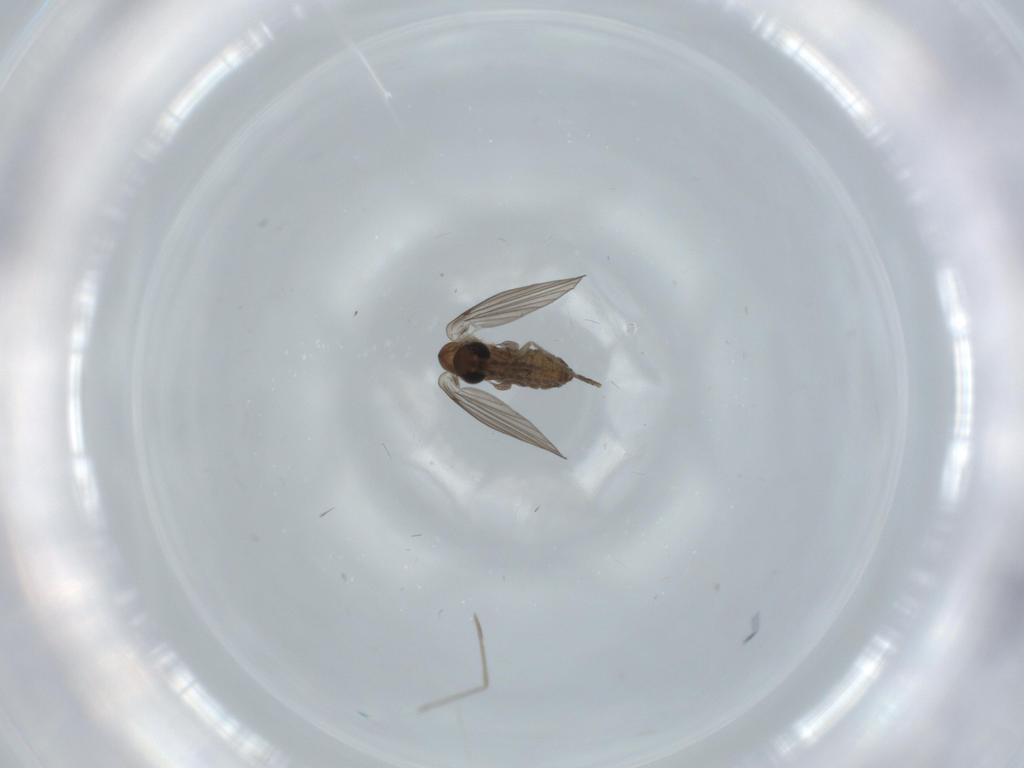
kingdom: Animalia
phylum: Arthropoda
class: Insecta
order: Diptera
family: Psychodidae
